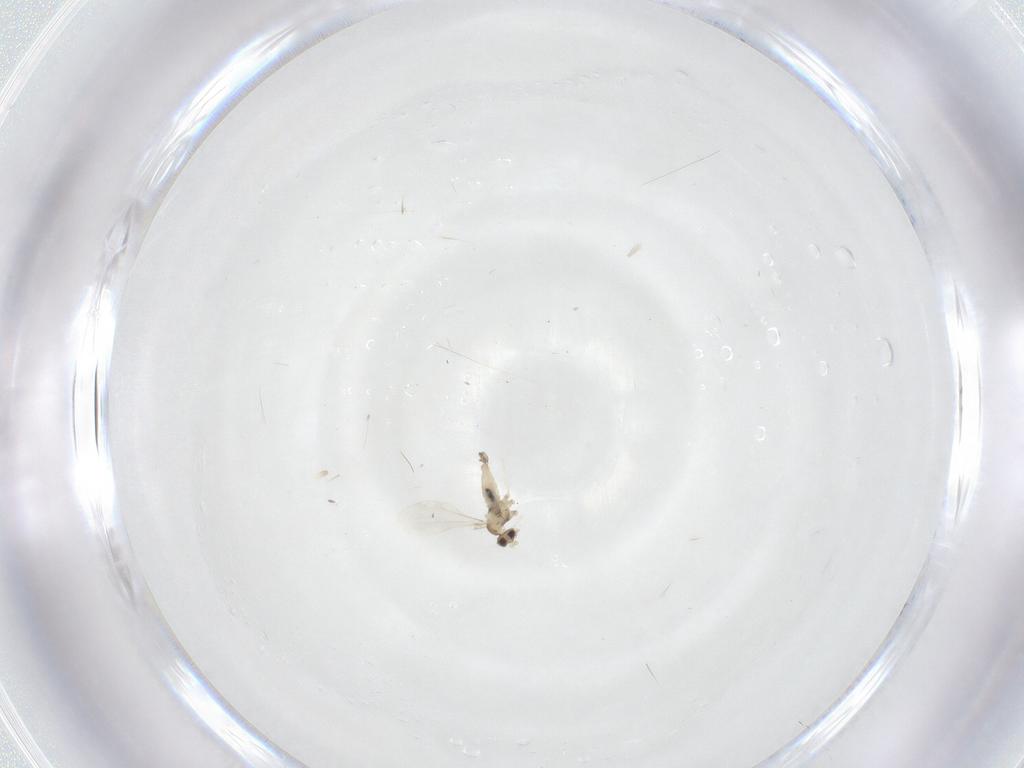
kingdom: Animalia
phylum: Arthropoda
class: Insecta
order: Diptera
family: Cecidomyiidae
